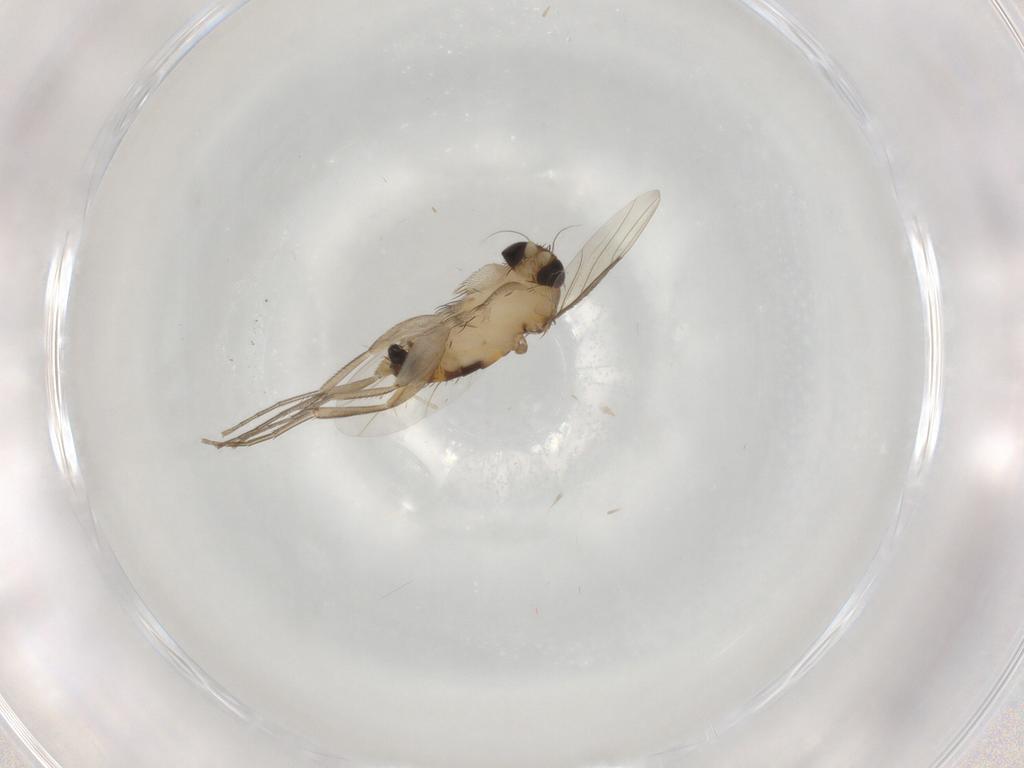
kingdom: Animalia
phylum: Arthropoda
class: Insecta
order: Diptera
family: Phoridae
